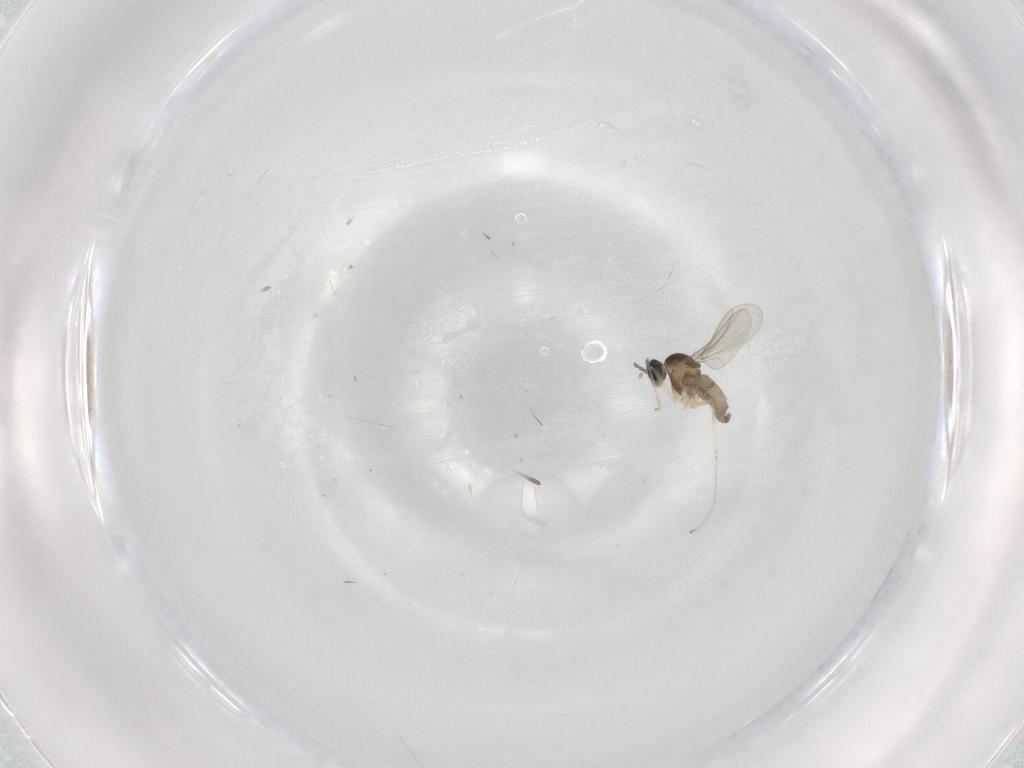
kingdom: Animalia
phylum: Arthropoda
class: Insecta
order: Diptera
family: Cecidomyiidae
